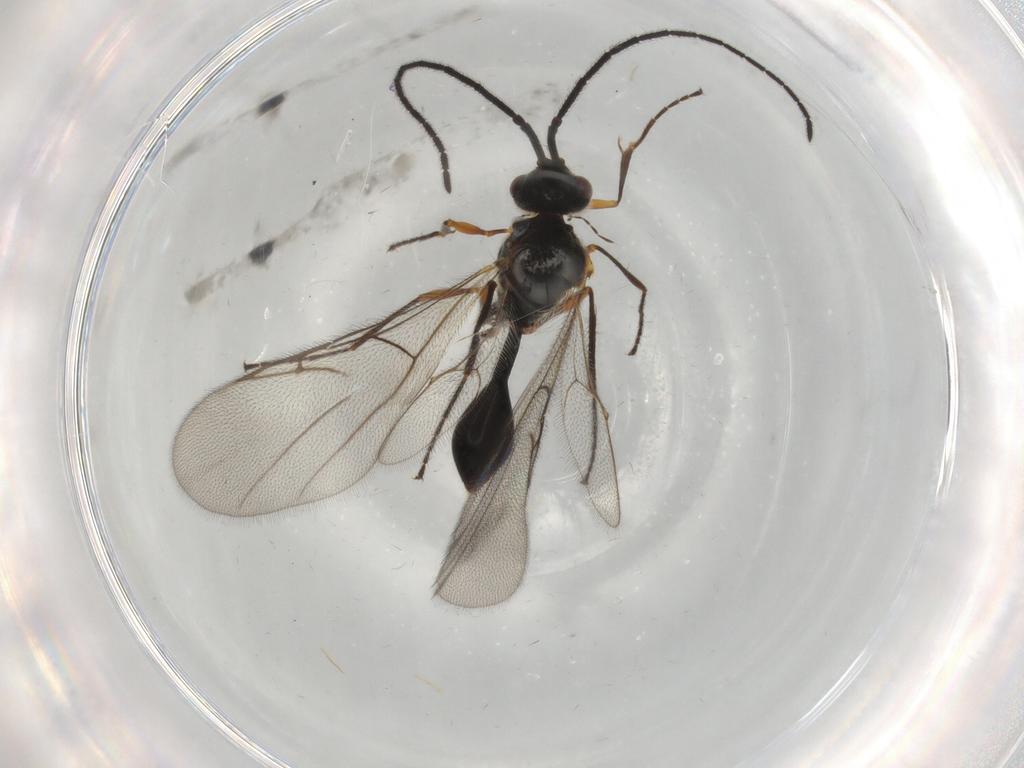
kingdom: Animalia
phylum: Arthropoda
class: Insecta
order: Hymenoptera
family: Diapriidae
